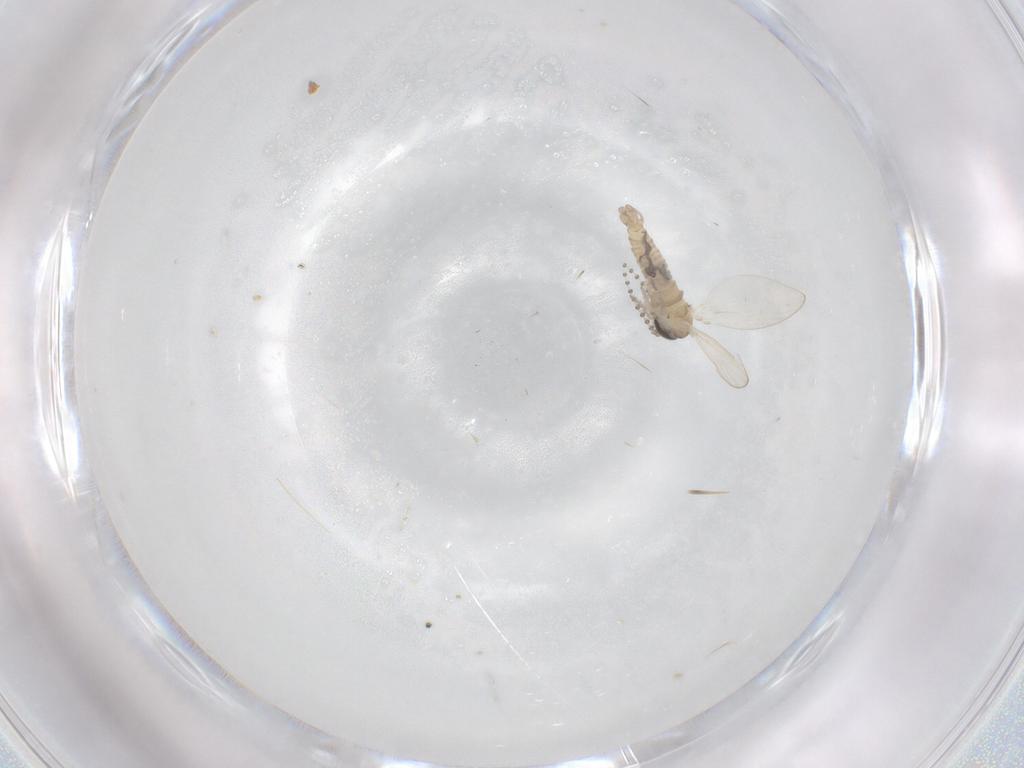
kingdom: Animalia
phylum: Arthropoda
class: Insecta
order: Diptera
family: Psychodidae
